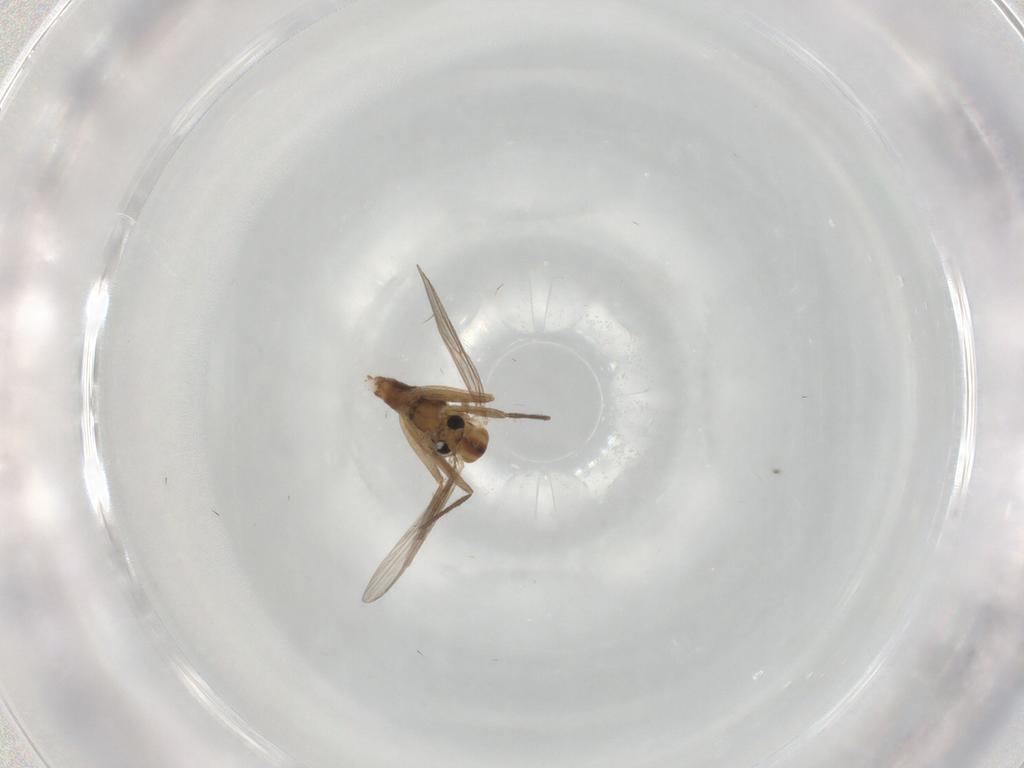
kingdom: Animalia
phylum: Arthropoda
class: Insecta
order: Diptera
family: Chironomidae
